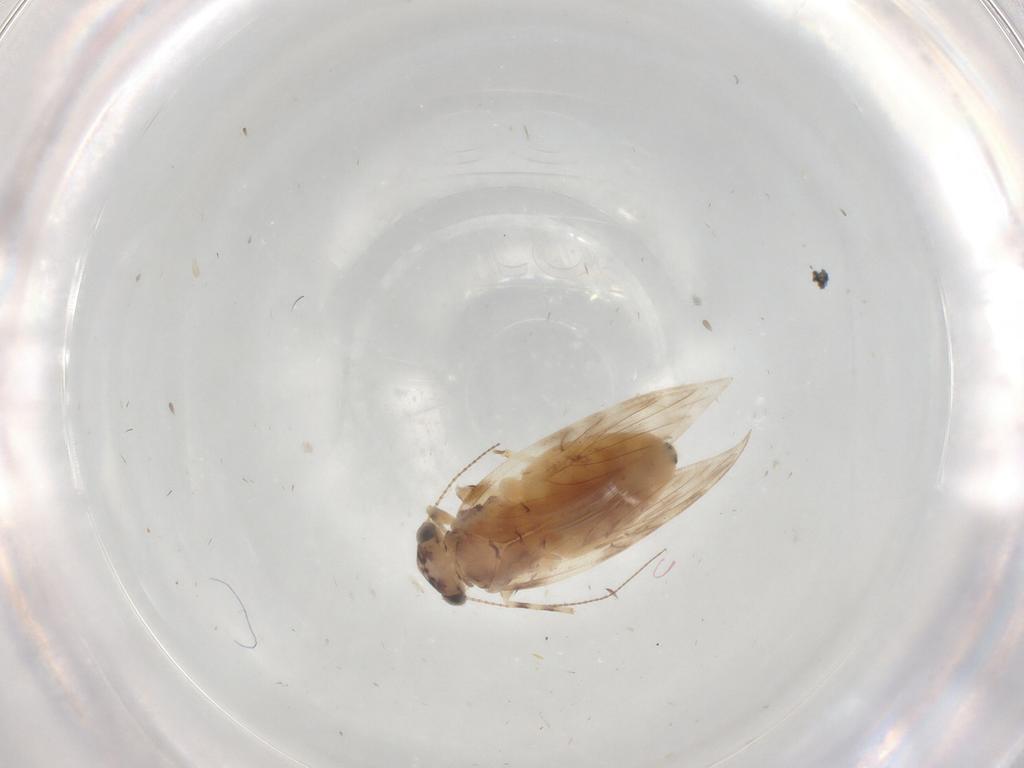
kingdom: Animalia
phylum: Arthropoda
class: Insecta
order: Psocodea
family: Lepidopsocidae
